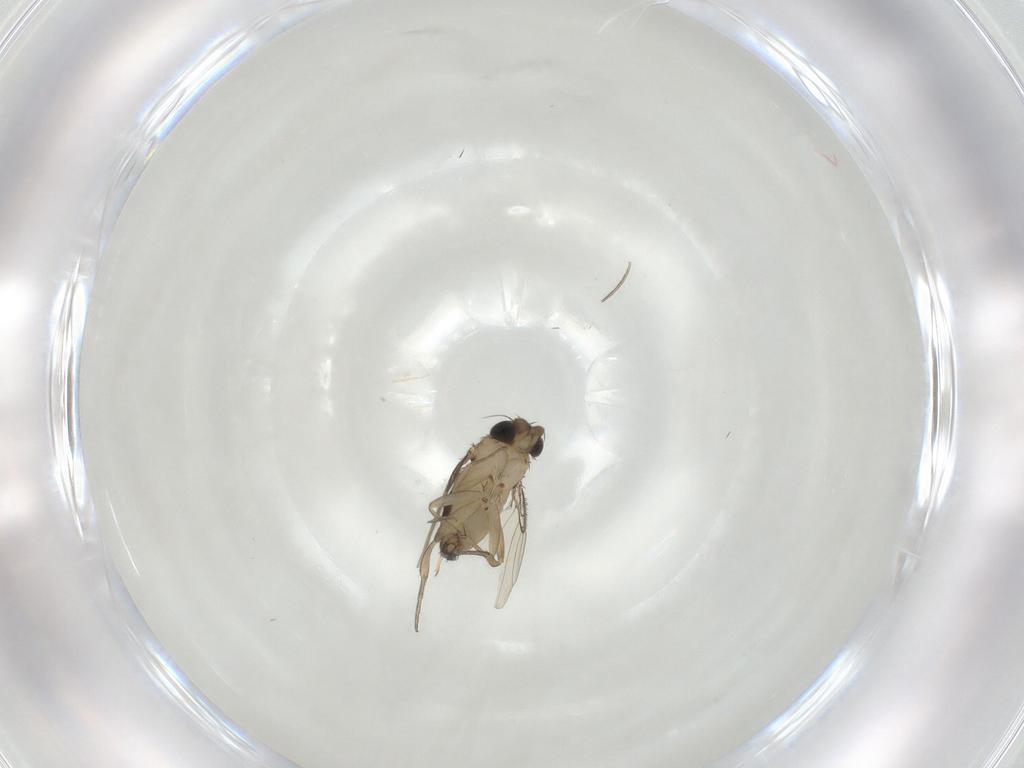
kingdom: Animalia
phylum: Arthropoda
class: Insecta
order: Diptera
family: Phoridae
